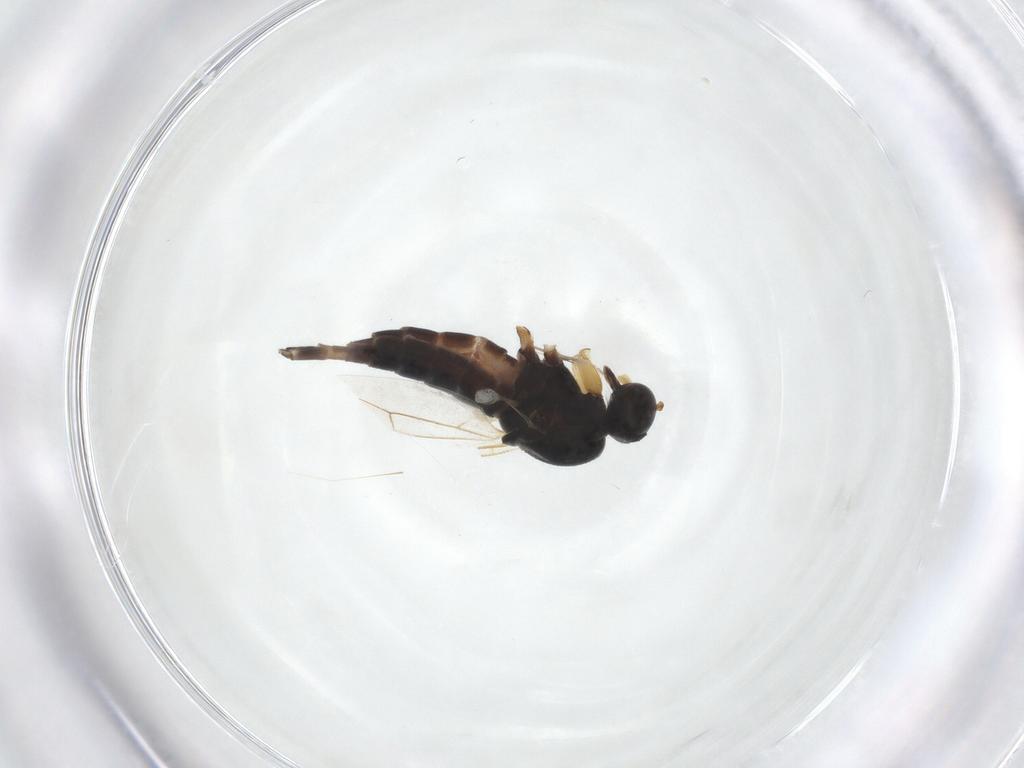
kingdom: Animalia
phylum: Arthropoda
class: Insecta
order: Diptera
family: Hybotidae
